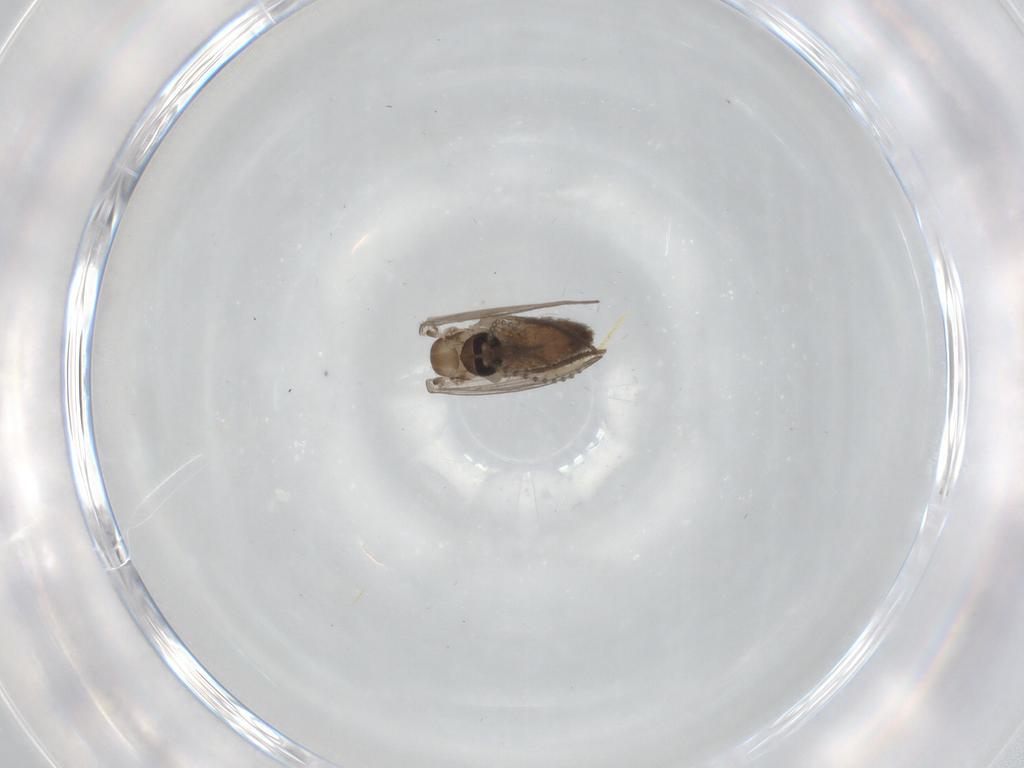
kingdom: Animalia
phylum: Arthropoda
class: Insecta
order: Diptera
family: Psychodidae
